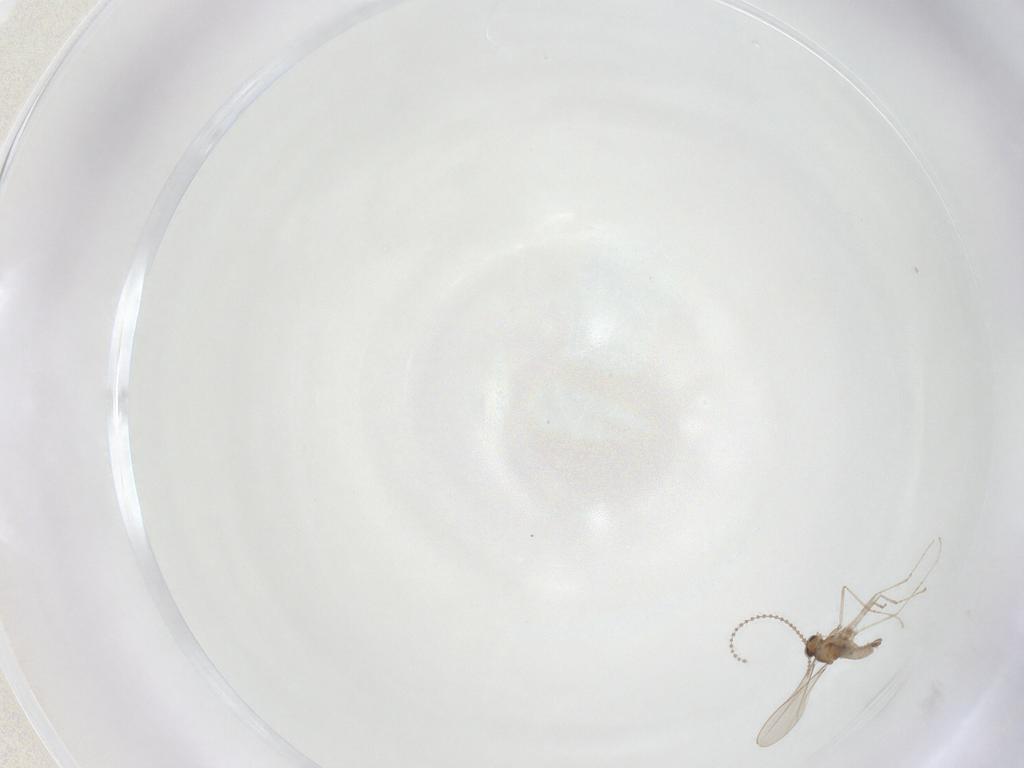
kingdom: Animalia
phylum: Arthropoda
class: Insecta
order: Diptera
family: Cecidomyiidae
